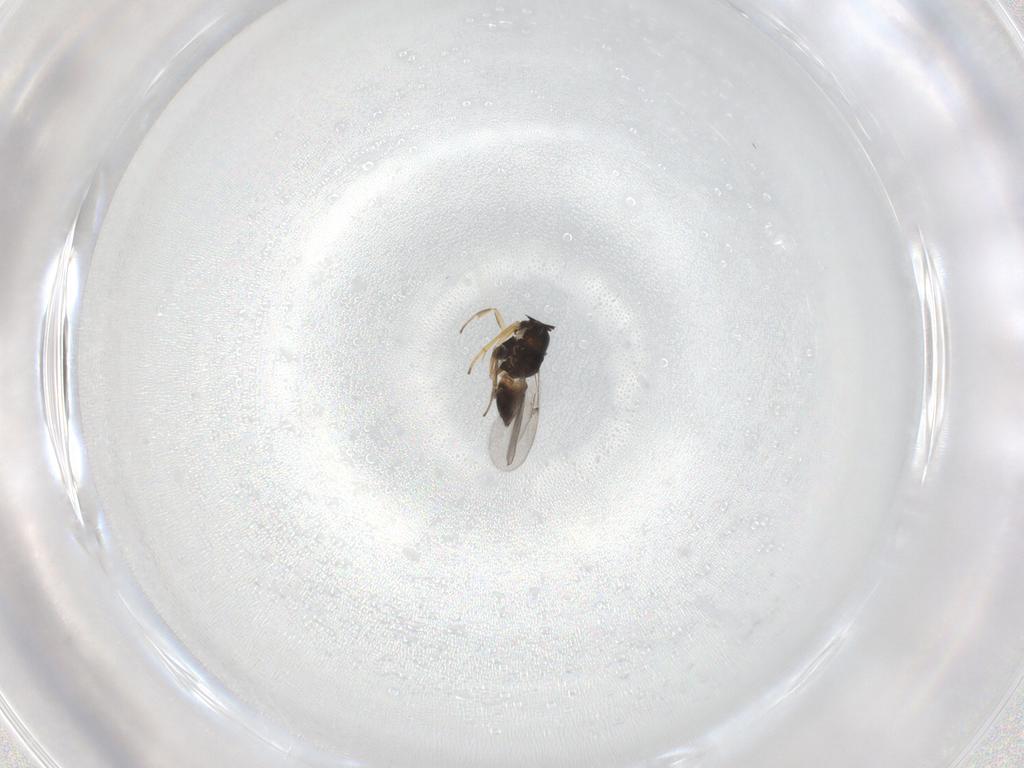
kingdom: Animalia
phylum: Arthropoda
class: Insecta
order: Hymenoptera
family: Formicidae
